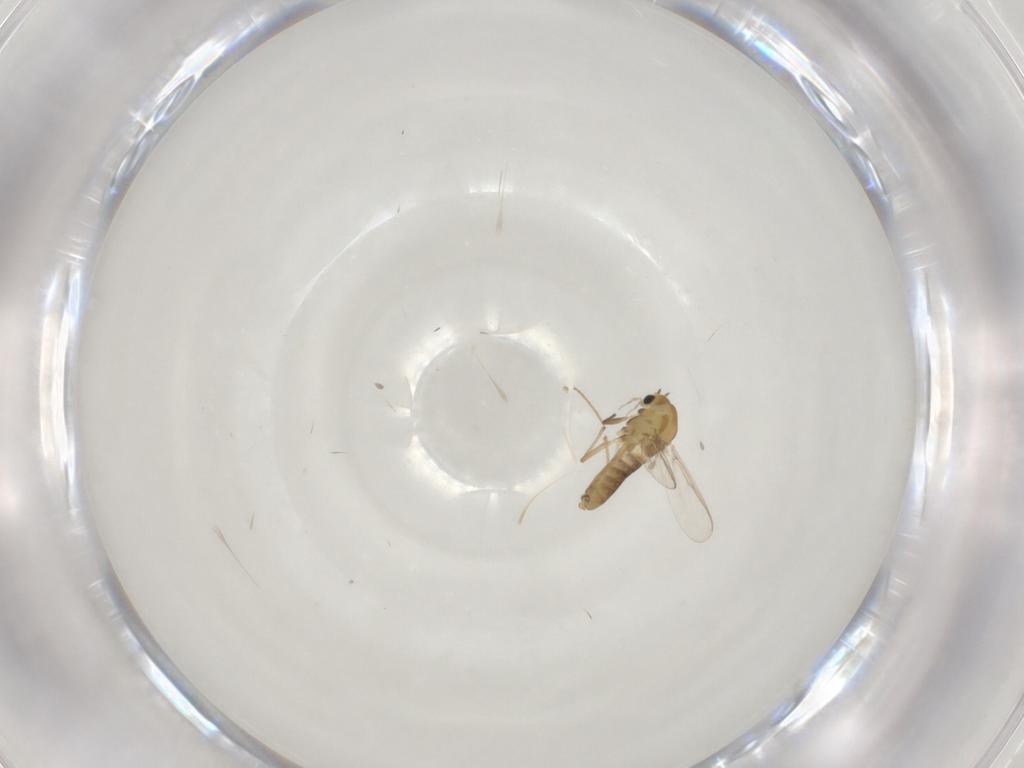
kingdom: Animalia
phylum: Arthropoda
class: Insecta
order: Diptera
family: Chironomidae
